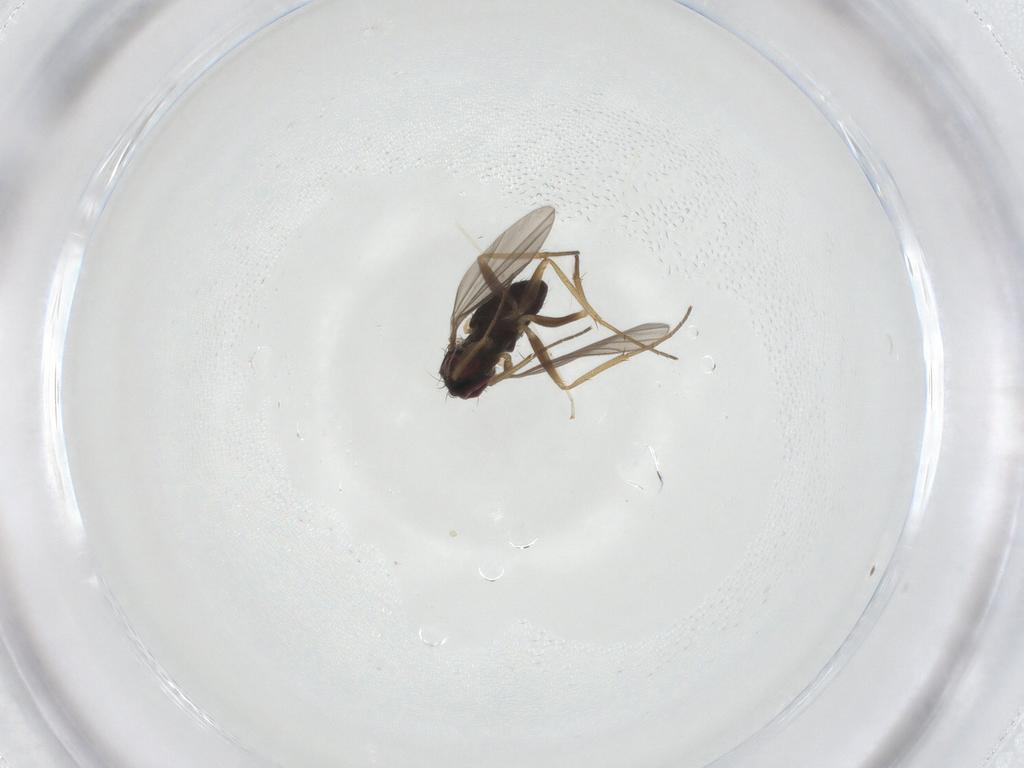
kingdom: Animalia
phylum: Arthropoda
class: Insecta
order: Diptera
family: Dolichopodidae
